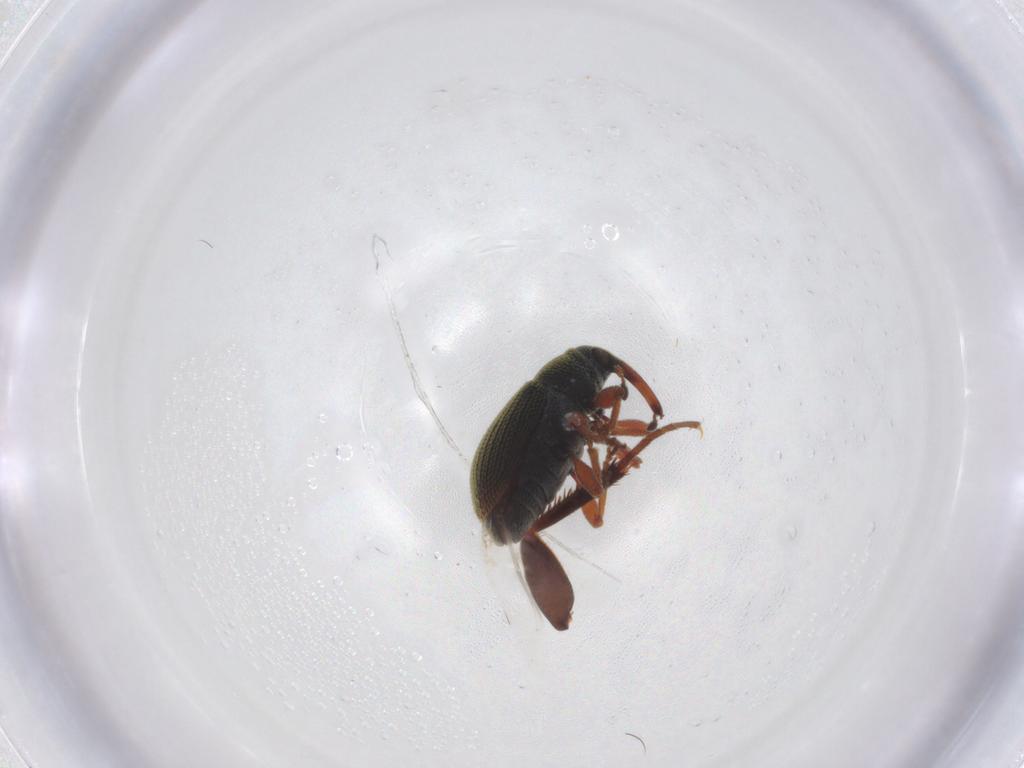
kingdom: Animalia
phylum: Arthropoda
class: Insecta
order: Coleoptera
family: Dermestidae
